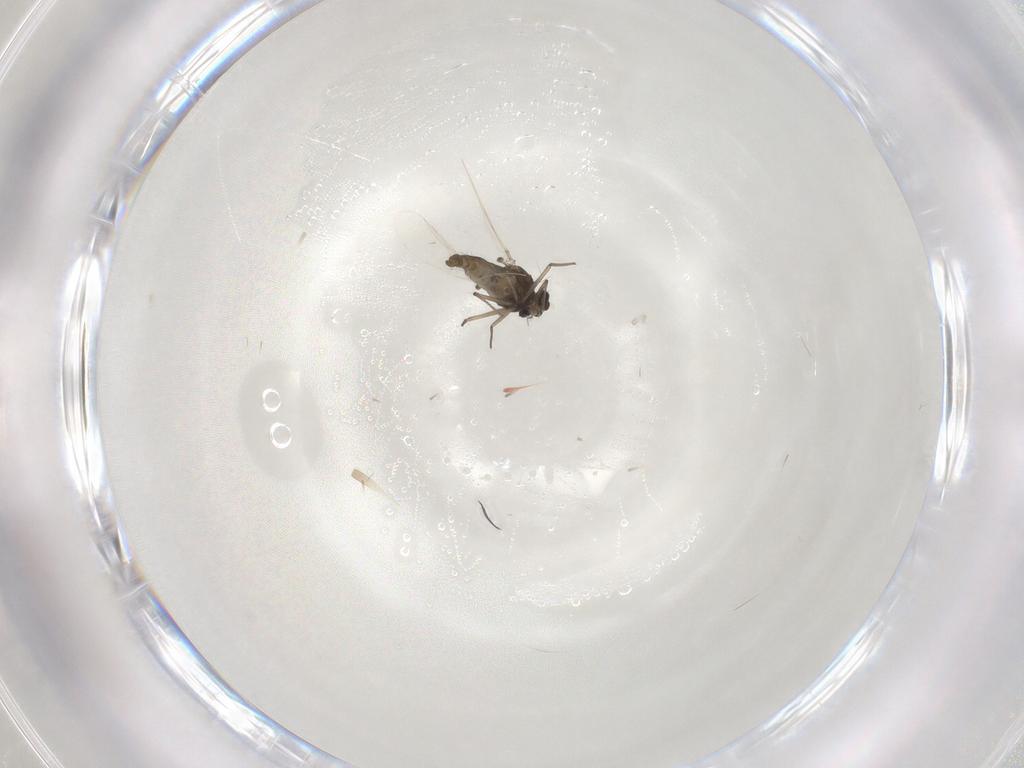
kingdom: Animalia
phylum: Arthropoda
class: Insecta
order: Diptera
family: Chironomidae
